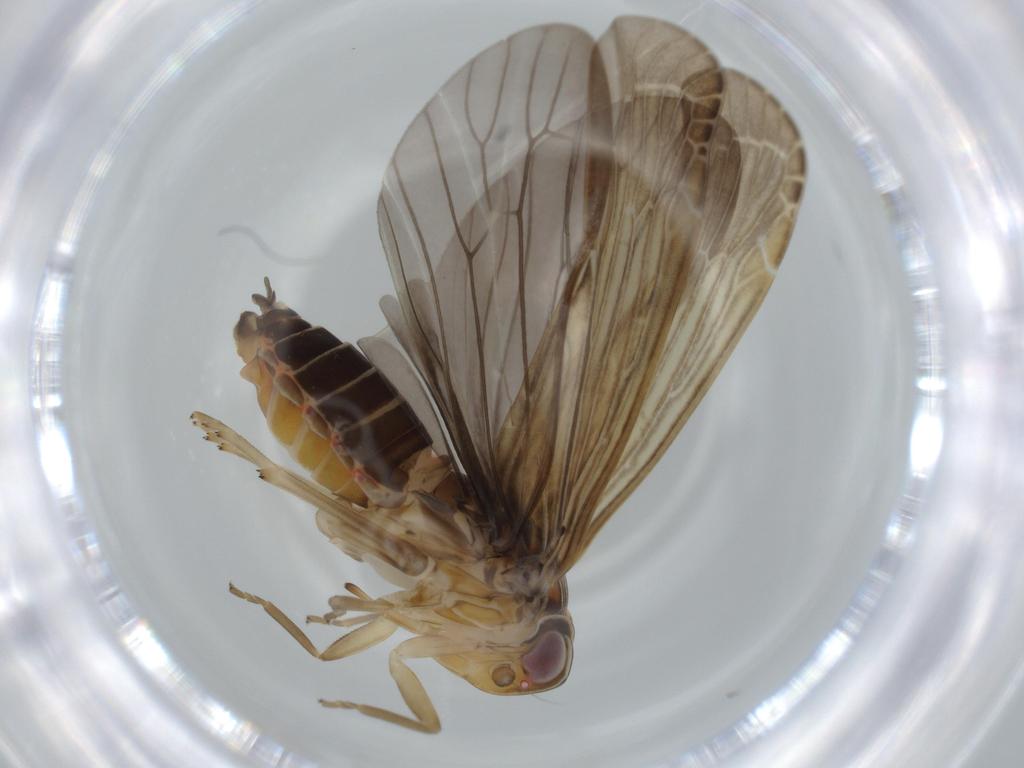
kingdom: Animalia
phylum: Arthropoda
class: Insecta
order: Hemiptera
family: Achilidae
